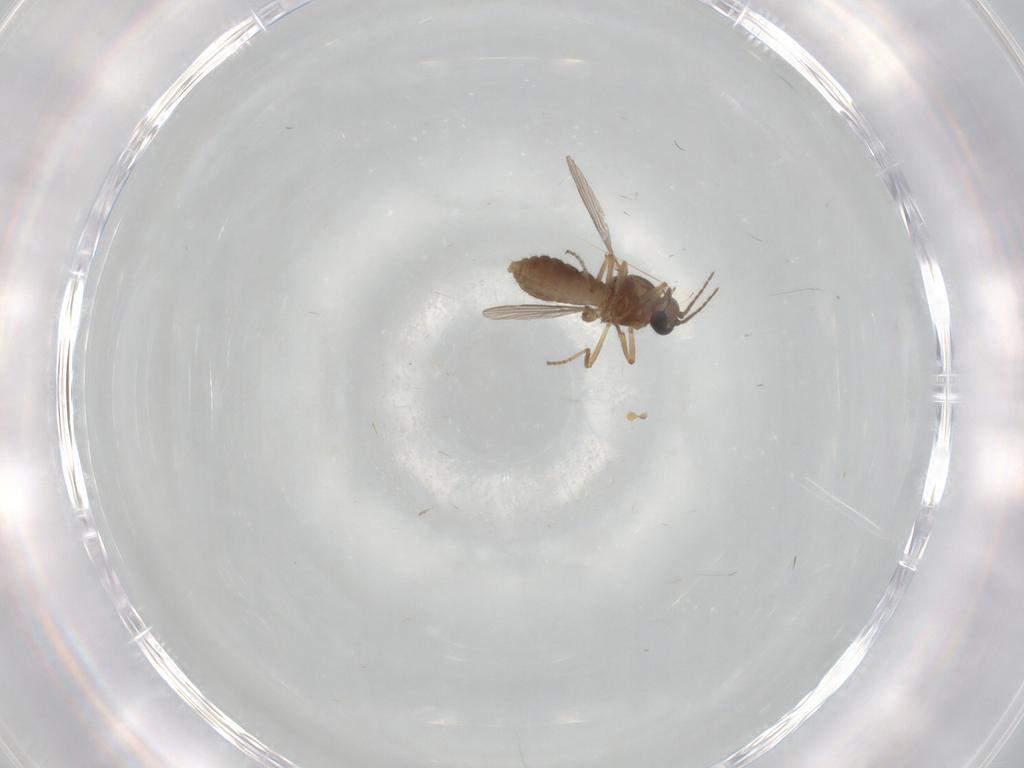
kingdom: Animalia
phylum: Arthropoda
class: Insecta
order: Diptera
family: Ceratopogonidae
